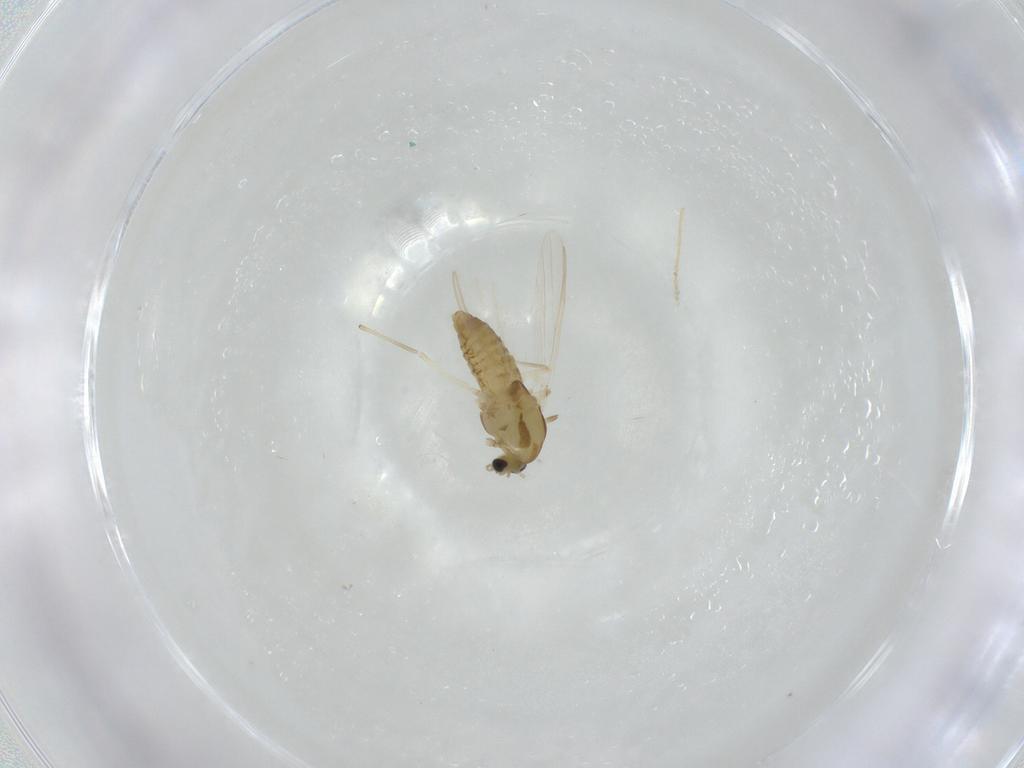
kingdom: Animalia
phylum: Arthropoda
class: Insecta
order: Diptera
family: Chironomidae
